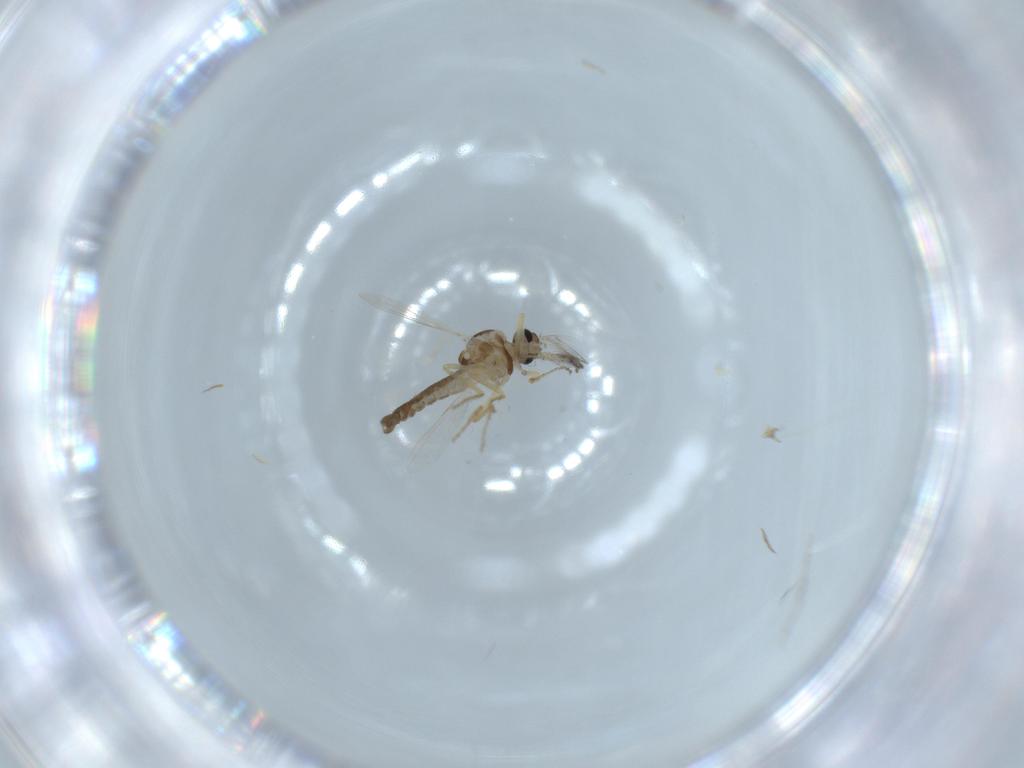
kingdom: Animalia
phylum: Arthropoda
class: Insecta
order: Diptera
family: Ceratopogonidae
